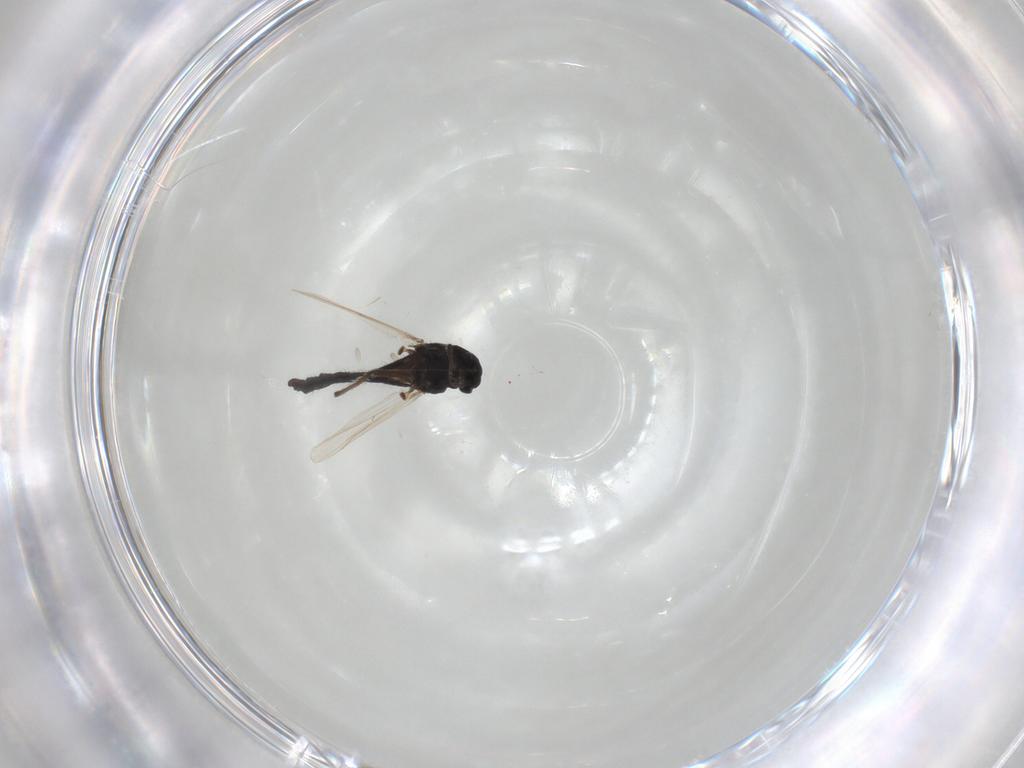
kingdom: Animalia
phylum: Arthropoda
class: Insecta
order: Diptera
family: Chironomidae
